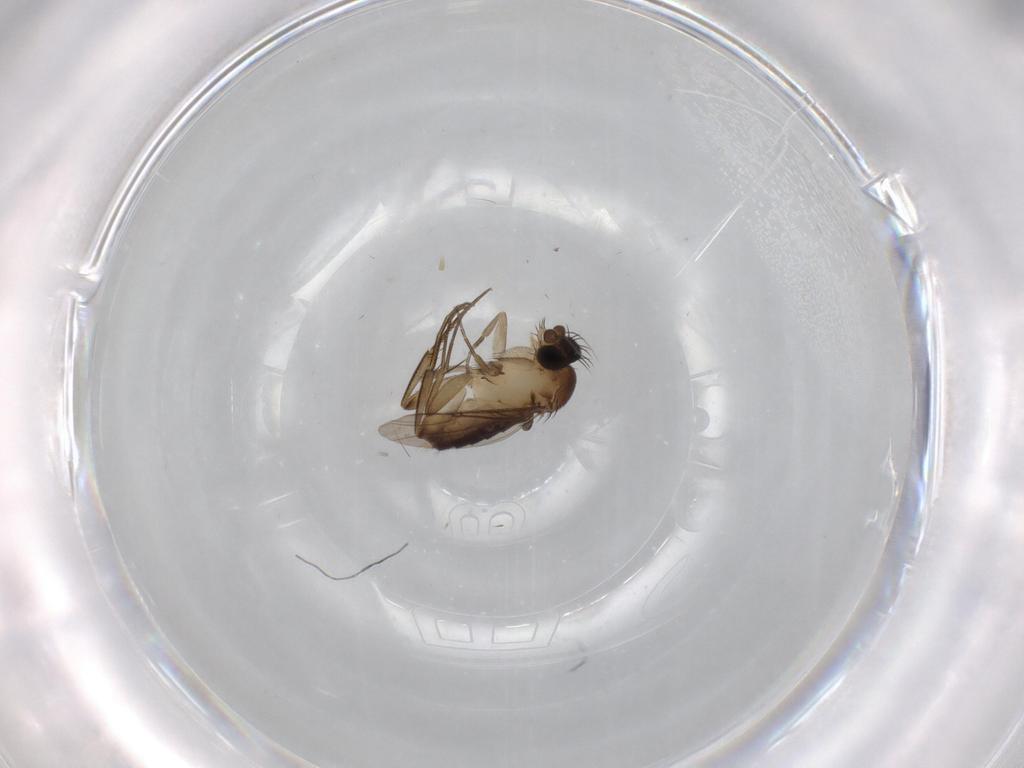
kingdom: Animalia
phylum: Arthropoda
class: Insecta
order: Diptera
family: Phoridae
